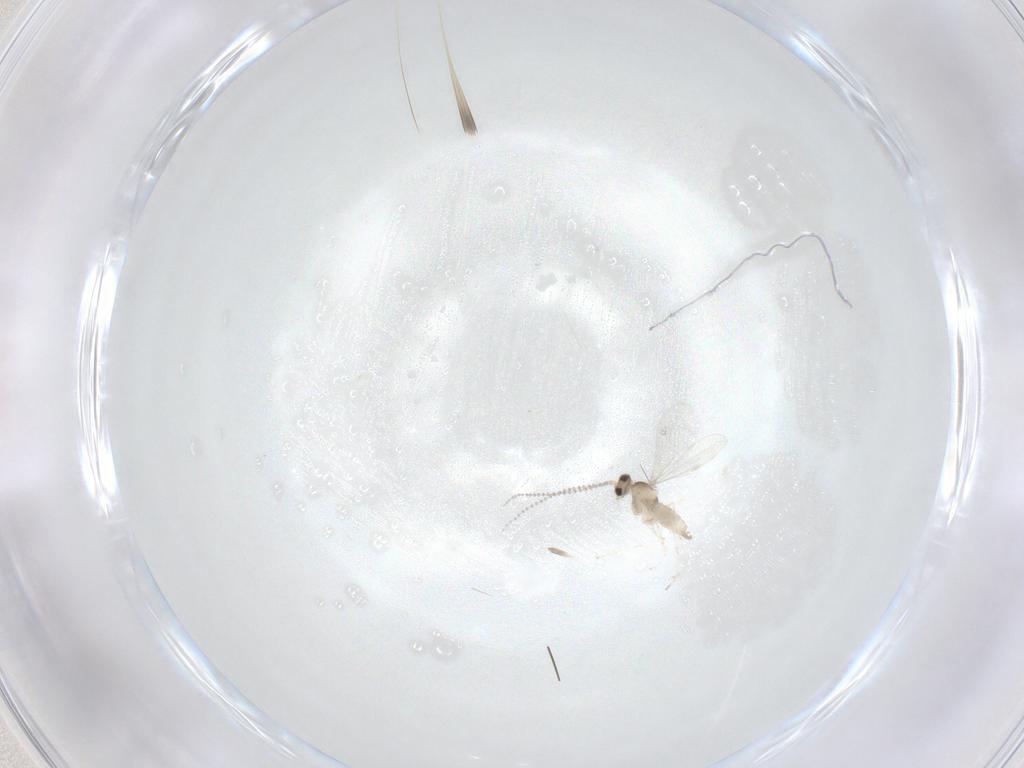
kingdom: Animalia
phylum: Arthropoda
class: Insecta
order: Diptera
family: Cecidomyiidae
